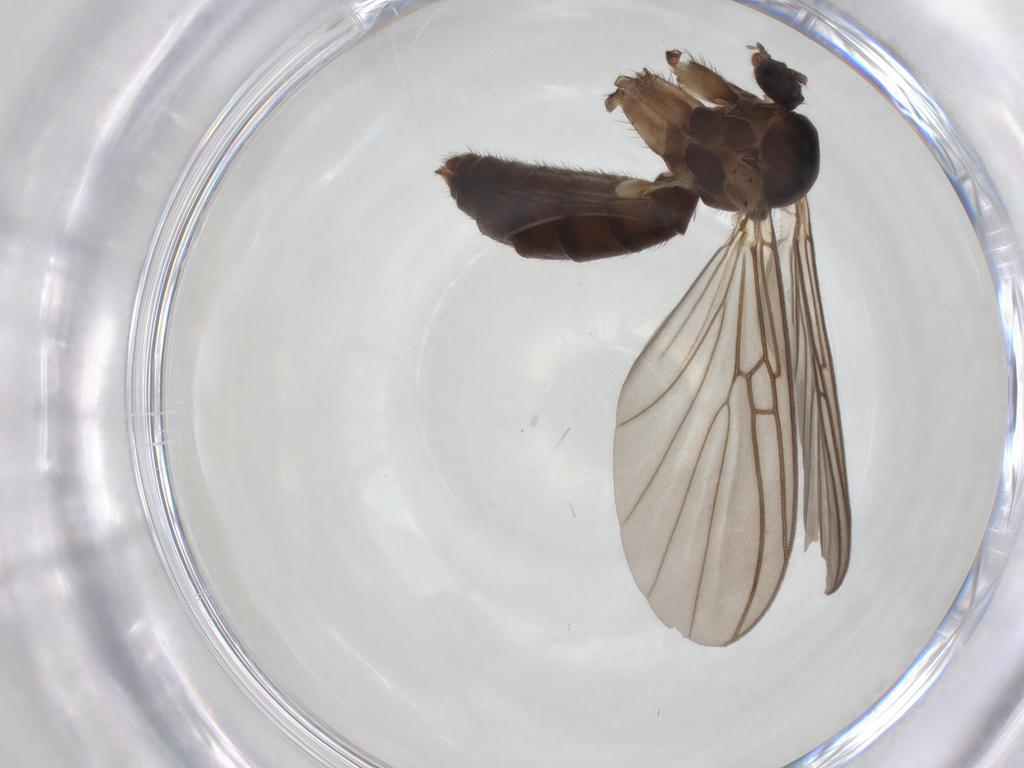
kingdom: Animalia
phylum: Arthropoda
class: Insecta
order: Diptera
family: Mycetophilidae
